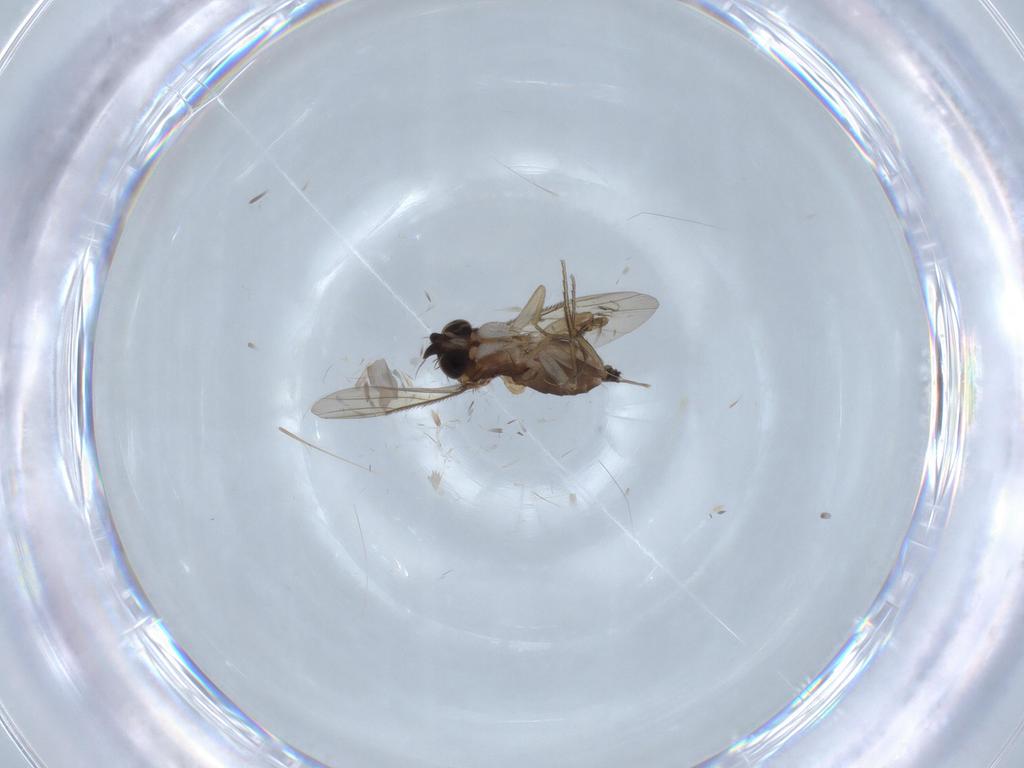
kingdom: Animalia
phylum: Arthropoda
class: Insecta
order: Diptera
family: Phoridae
